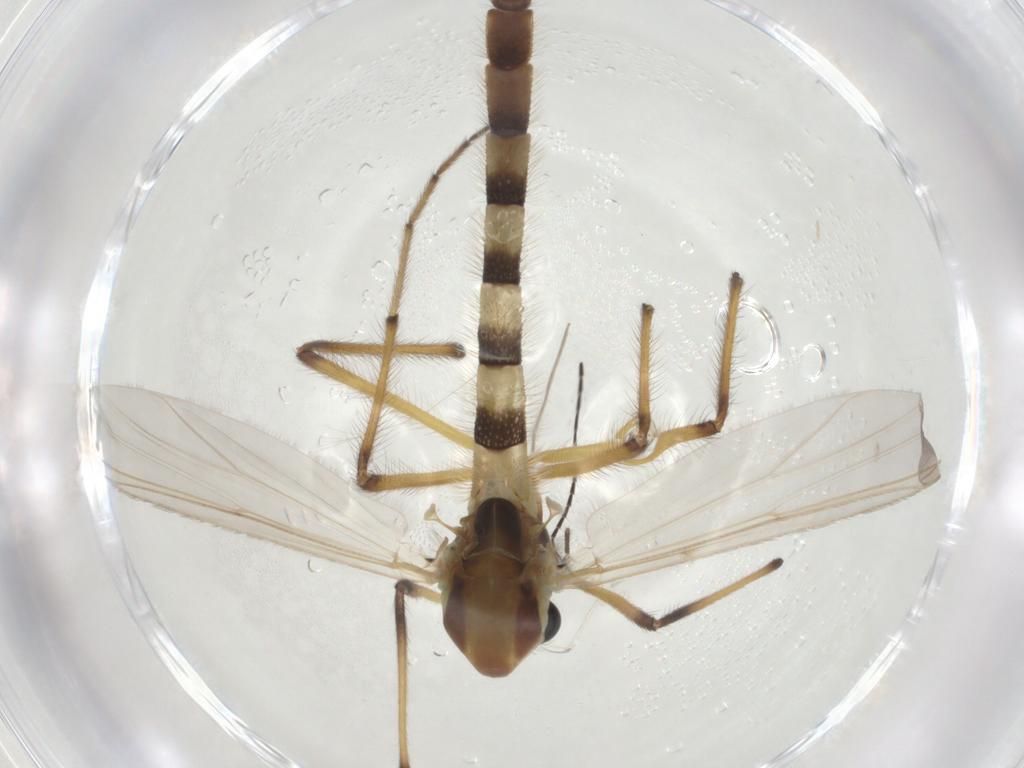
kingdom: Animalia
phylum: Arthropoda
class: Insecta
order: Diptera
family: Chironomidae
